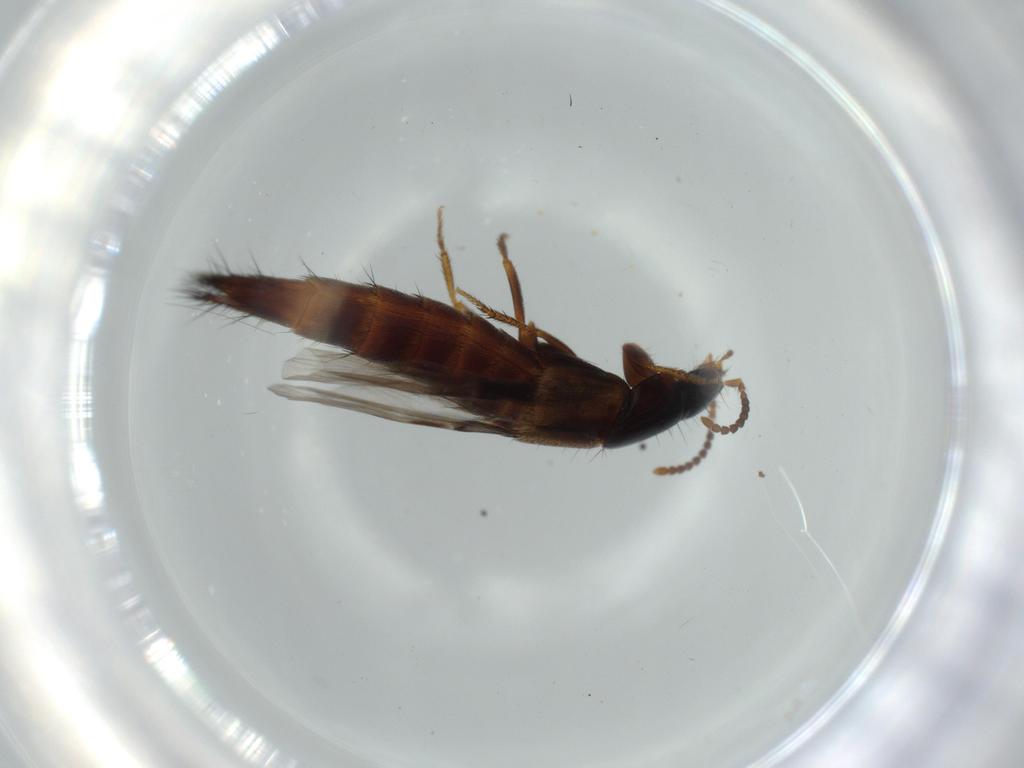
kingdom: Animalia
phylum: Arthropoda
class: Insecta
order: Coleoptera
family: Staphylinidae
